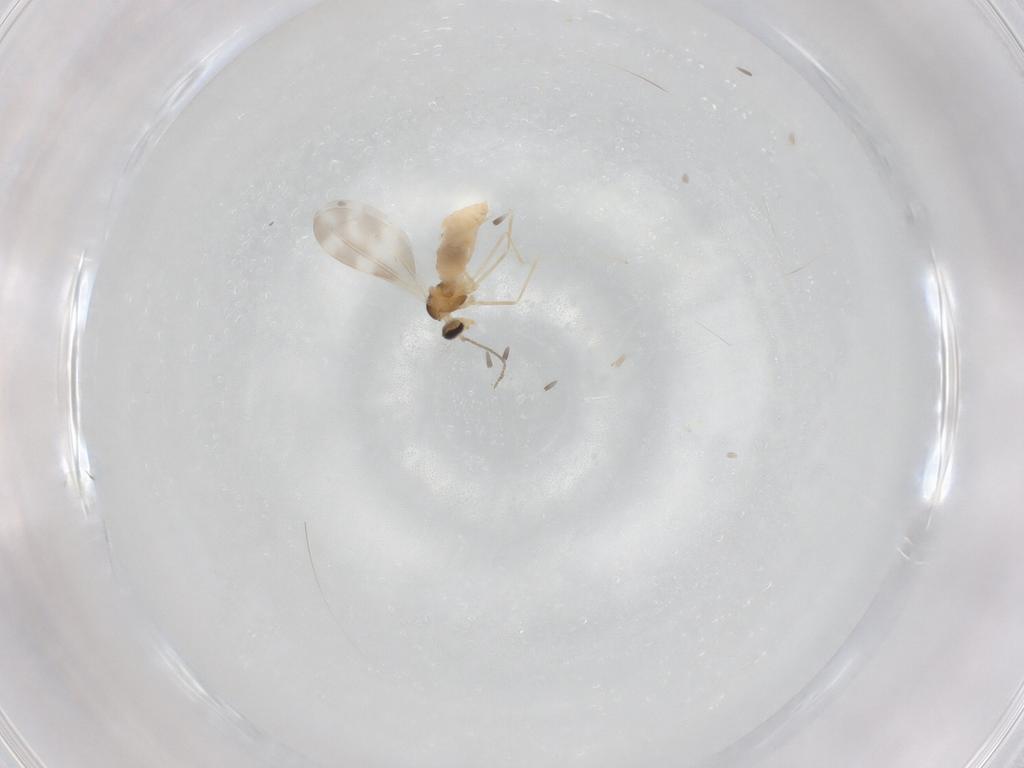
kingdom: Animalia
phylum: Arthropoda
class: Insecta
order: Diptera
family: Cecidomyiidae
